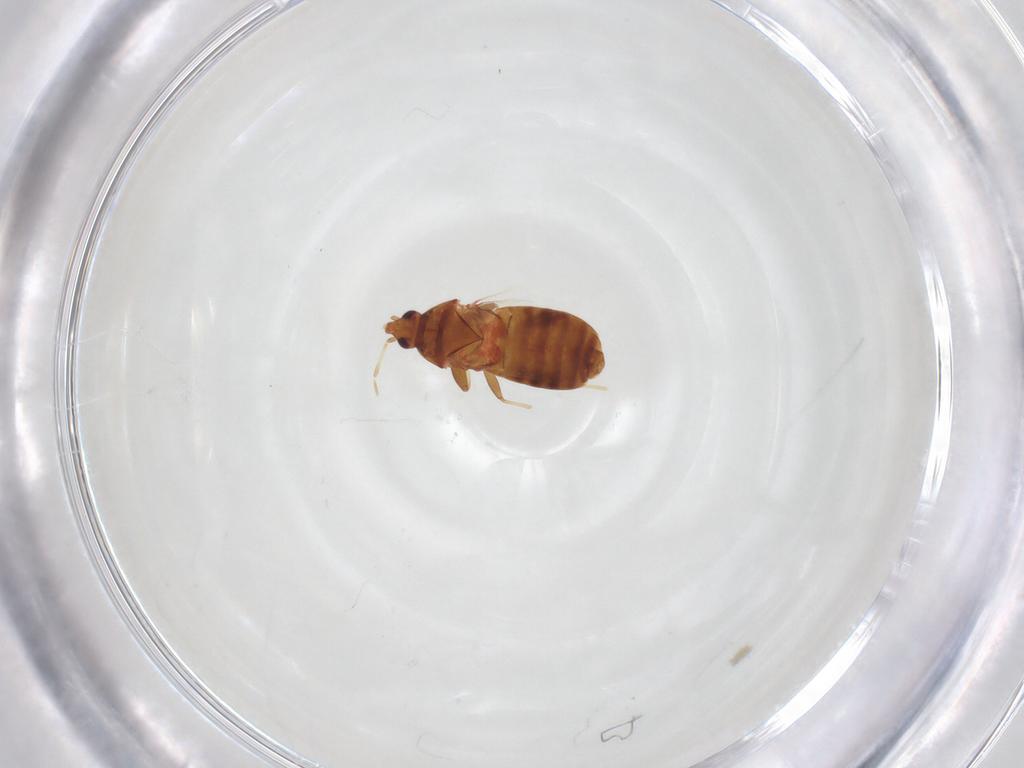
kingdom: Animalia
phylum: Arthropoda
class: Insecta
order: Hemiptera
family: Lasiochilidae
